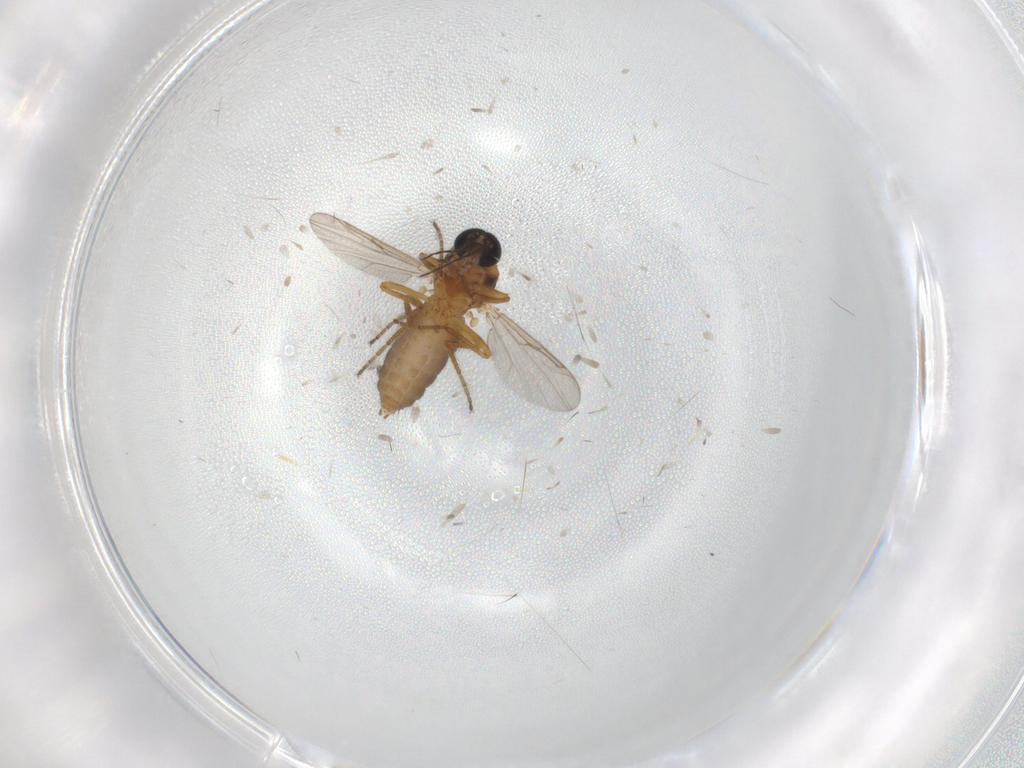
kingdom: Animalia
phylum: Arthropoda
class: Insecta
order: Diptera
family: Ceratopogonidae
